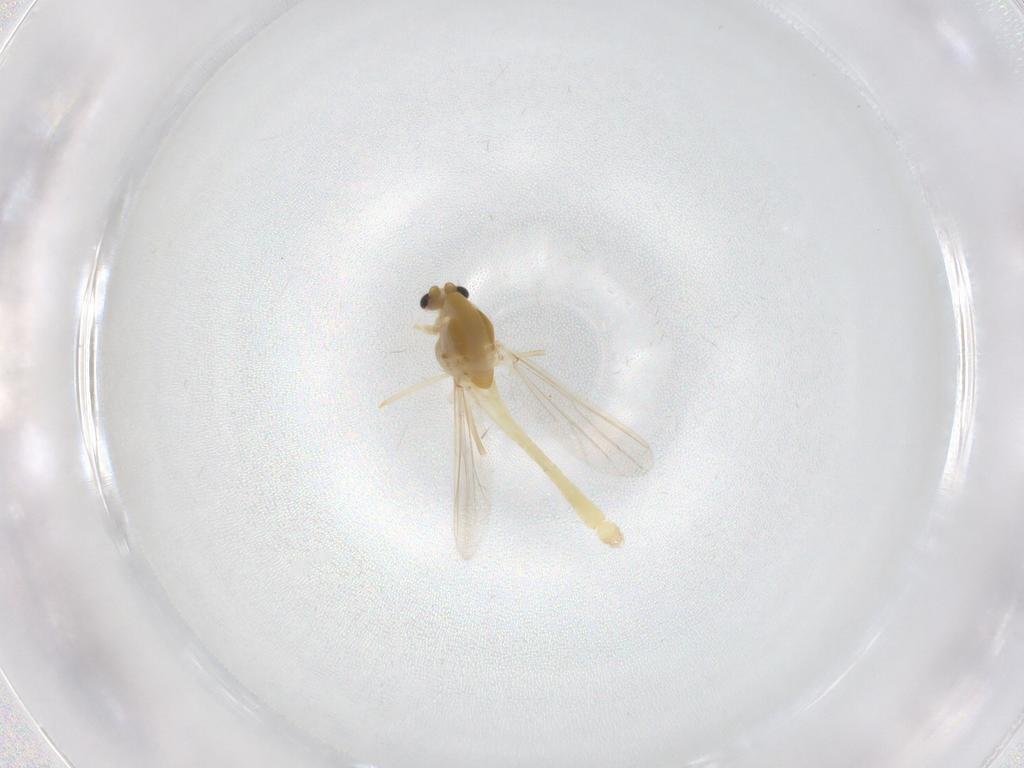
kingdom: Animalia
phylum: Arthropoda
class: Insecta
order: Diptera
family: Chironomidae
